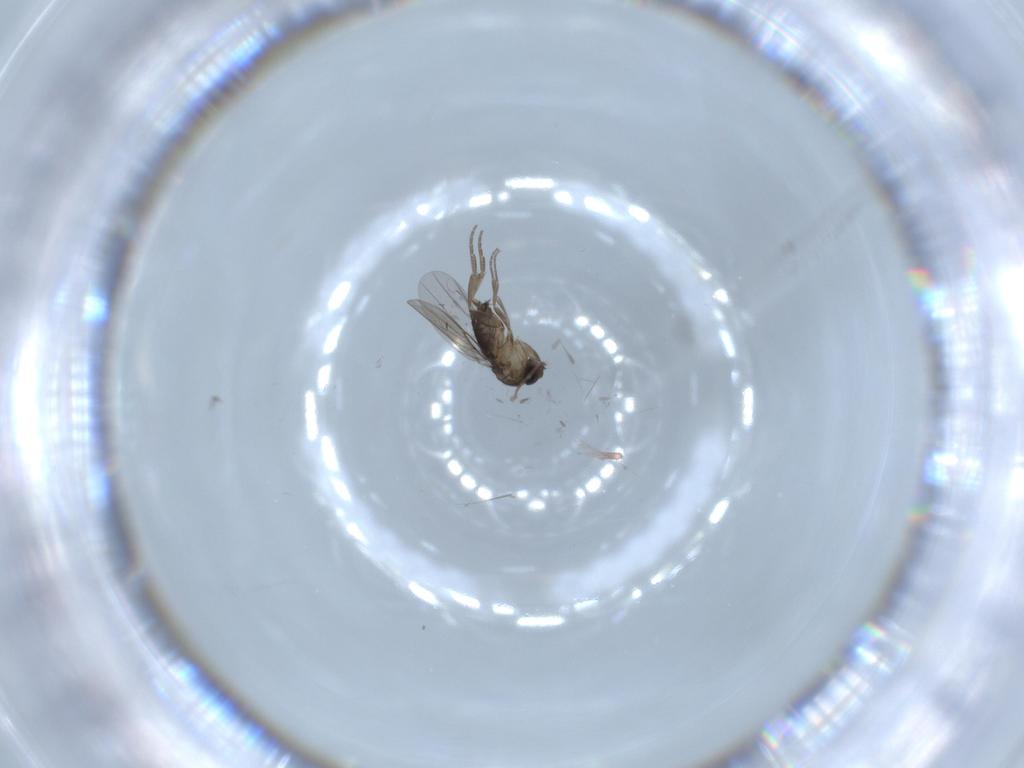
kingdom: Animalia
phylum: Arthropoda
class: Insecta
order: Diptera
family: Phoridae
